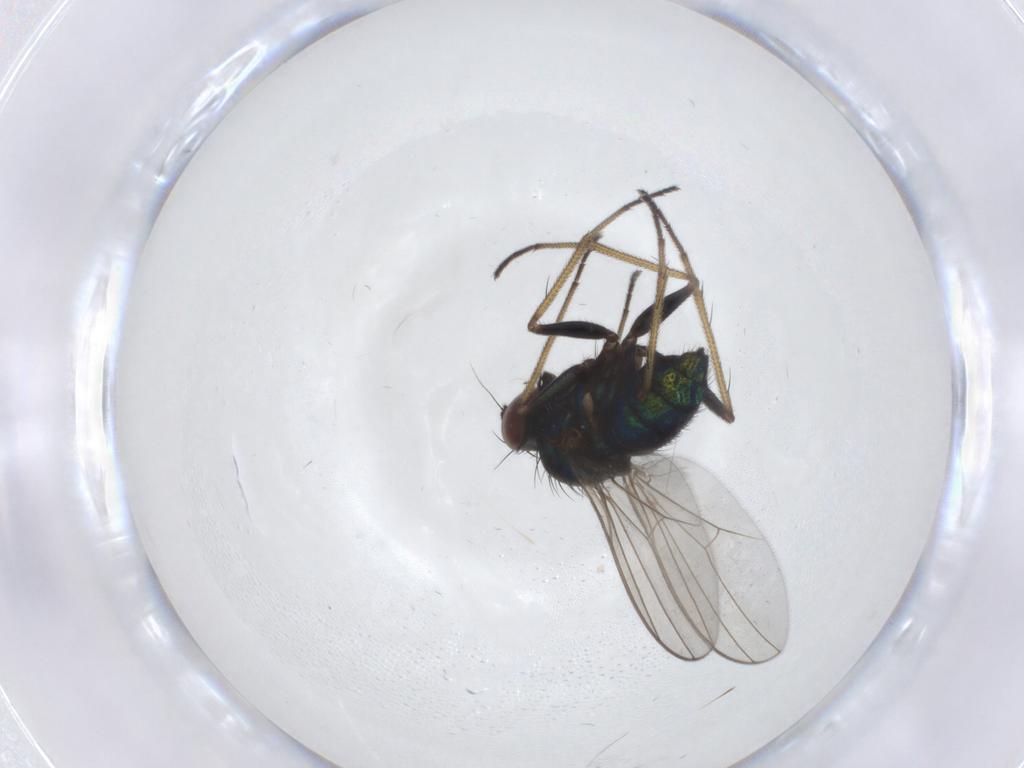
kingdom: Animalia
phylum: Arthropoda
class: Insecta
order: Diptera
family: Dolichopodidae
